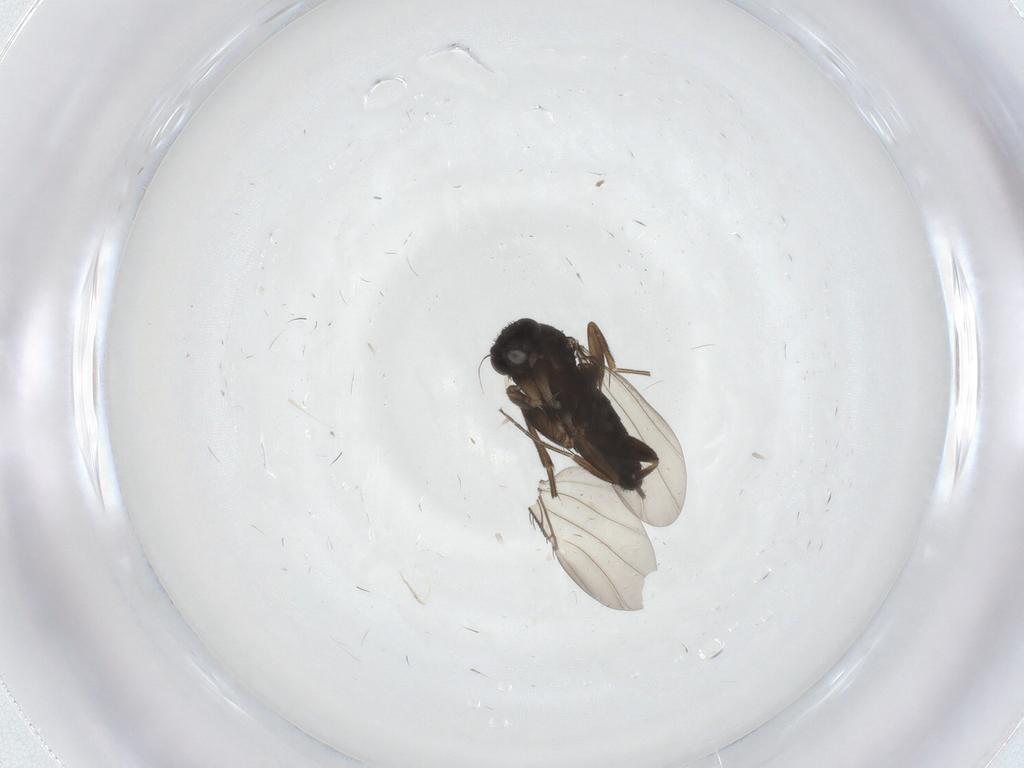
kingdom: Animalia
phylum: Arthropoda
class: Insecta
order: Diptera
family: Phoridae
